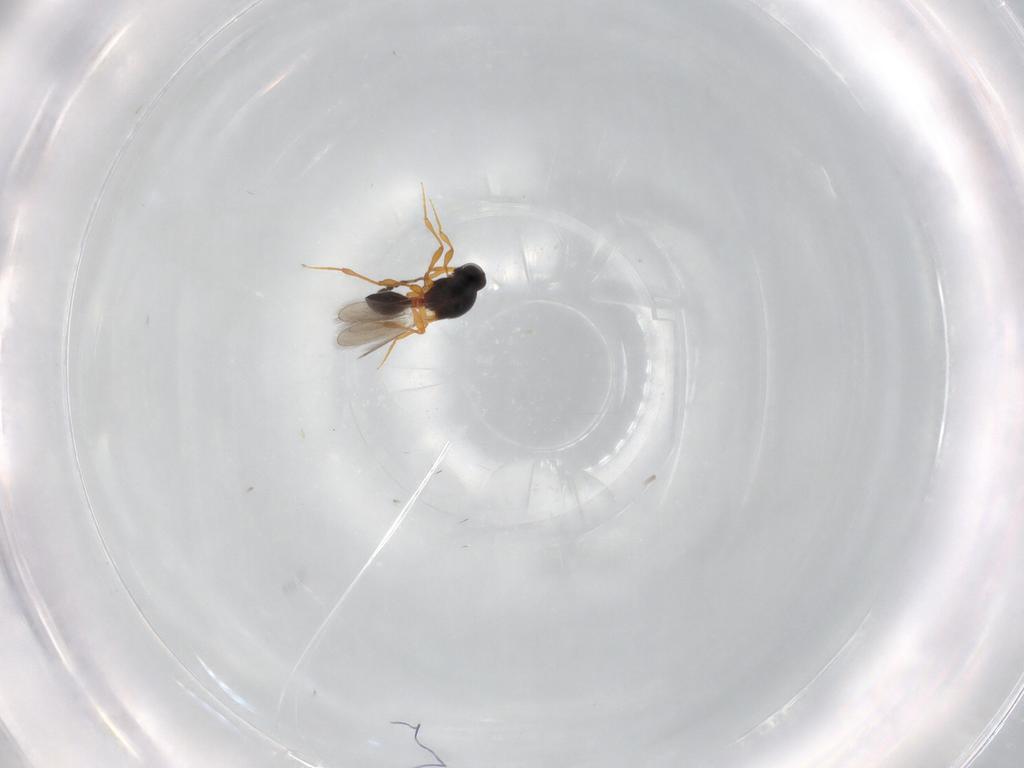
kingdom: Animalia
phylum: Arthropoda
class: Insecta
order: Hymenoptera
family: Platygastridae
